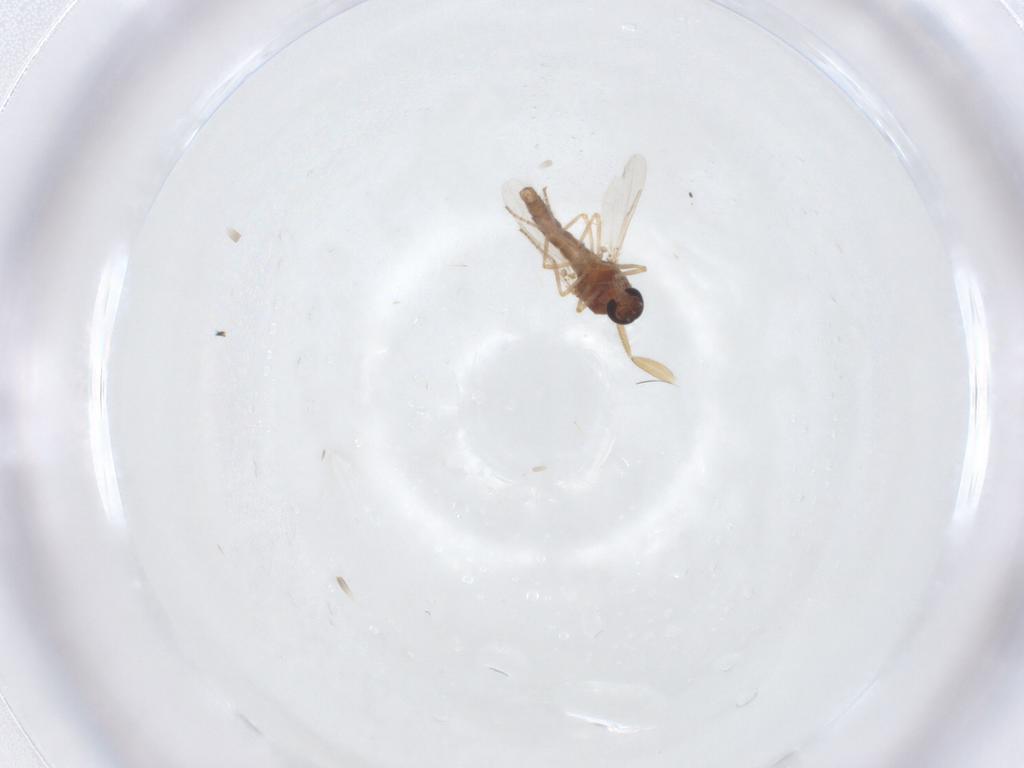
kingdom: Animalia
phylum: Arthropoda
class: Insecta
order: Diptera
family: Ceratopogonidae
